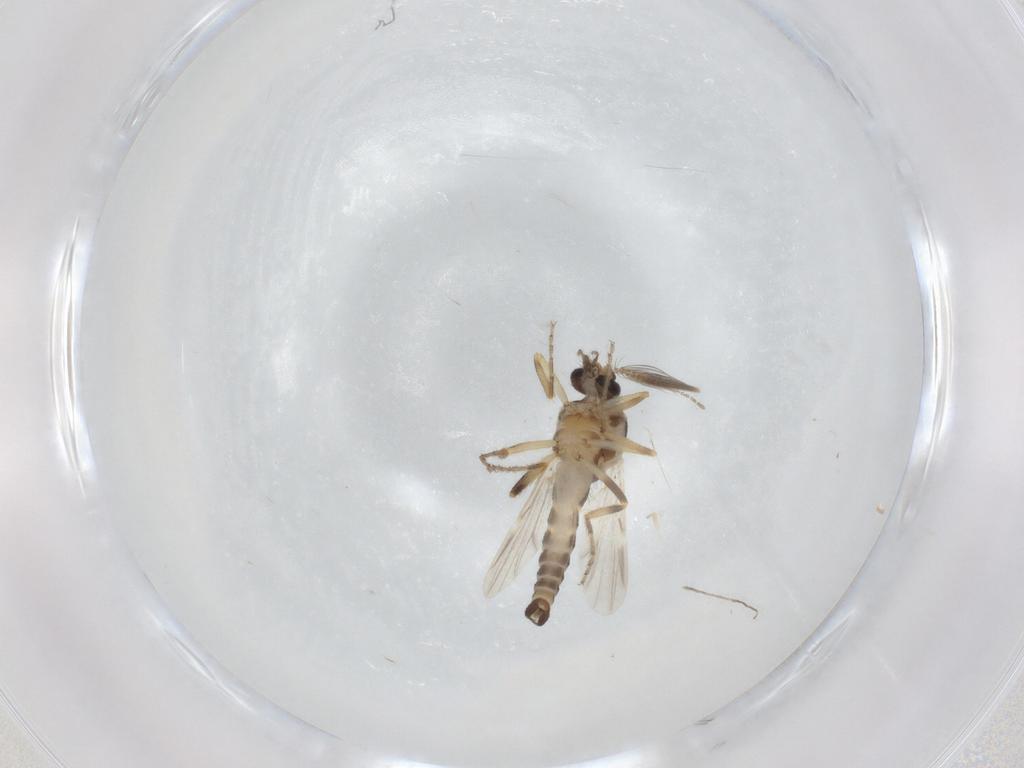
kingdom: Animalia
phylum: Arthropoda
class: Insecta
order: Diptera
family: Ceratopogonidae
